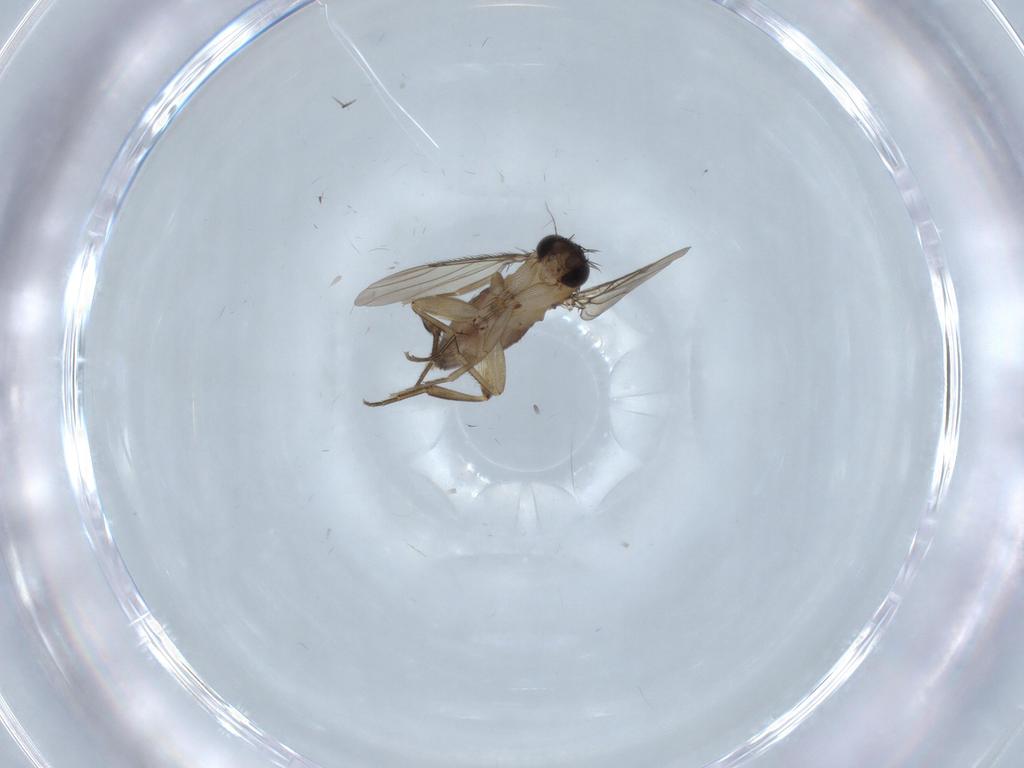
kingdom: Animalia
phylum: Arthropoda
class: Insecta
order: Diptera
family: Phoridae
